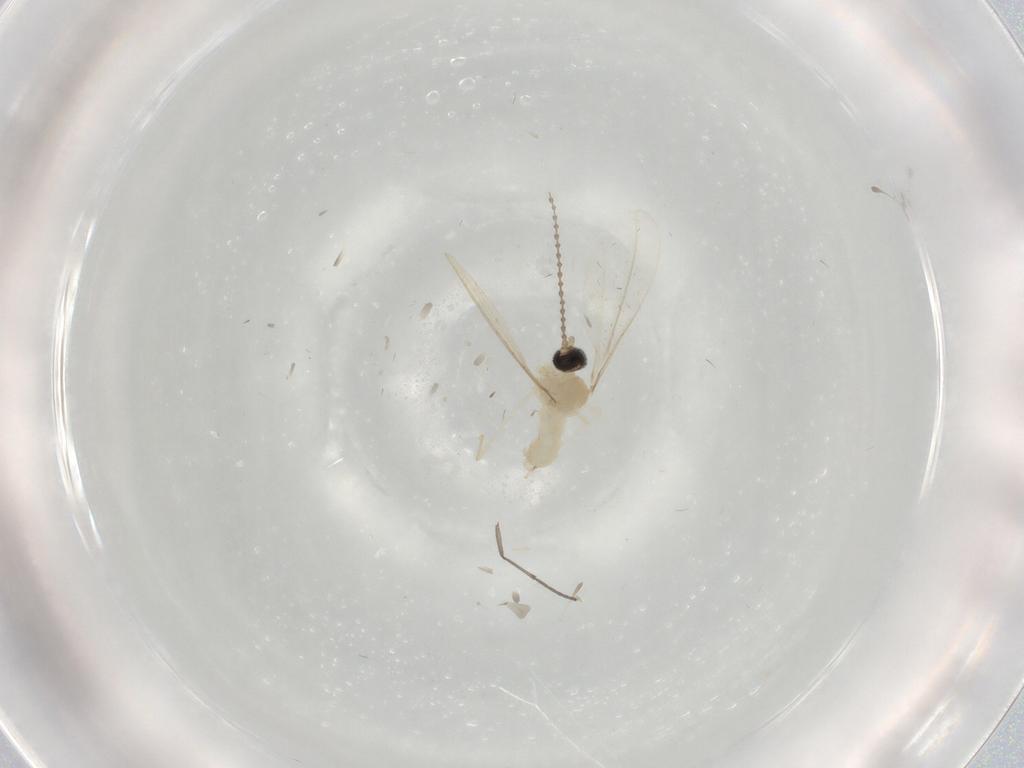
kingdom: Animalia
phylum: Arthropoda
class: Insecta
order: Diptera
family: Cecidomyiidae
